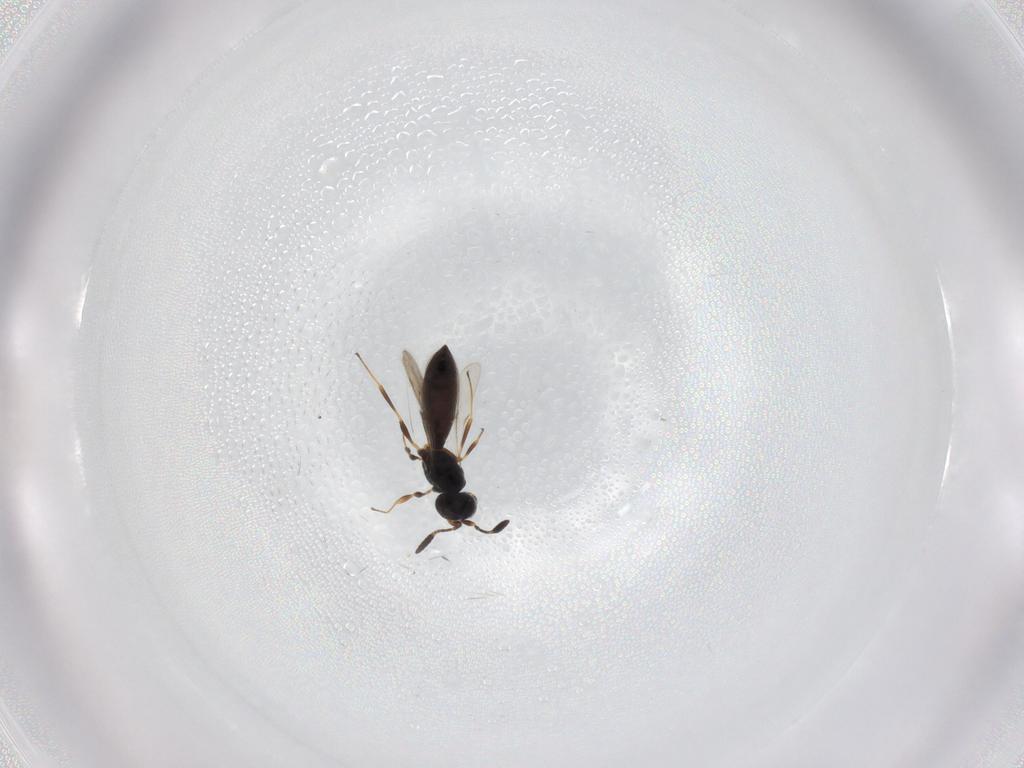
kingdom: Animalia
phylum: Arthropoda
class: Insecta
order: Hymenoptera
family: Scelionidae
